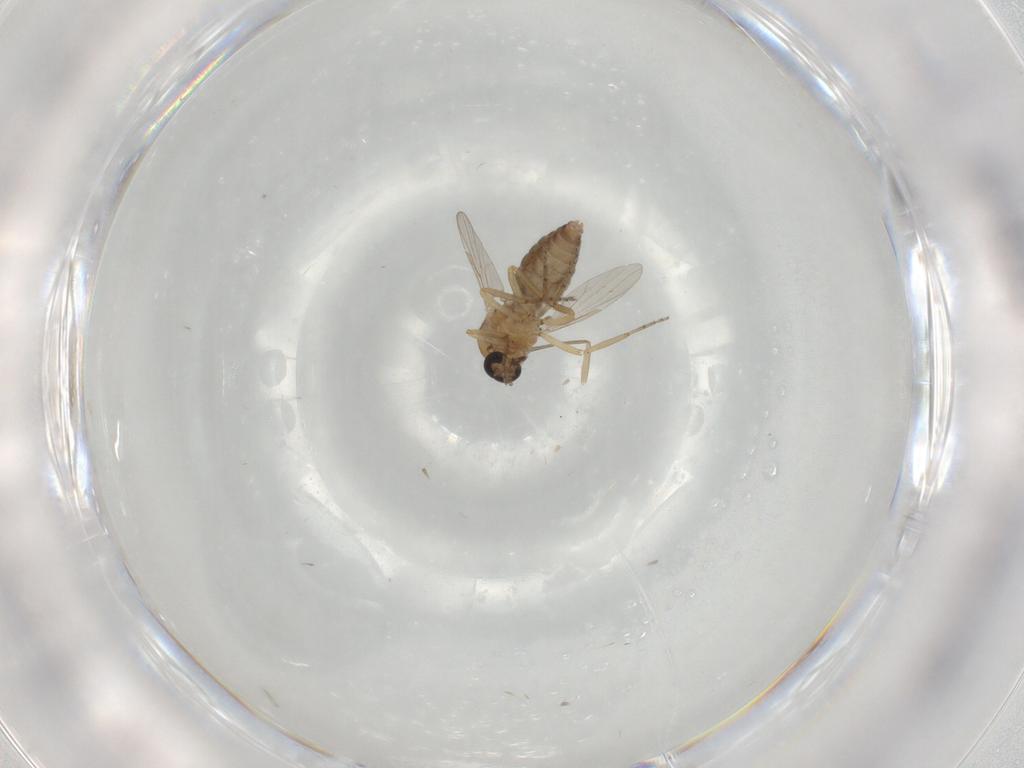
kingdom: Animalia
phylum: Arthropoda
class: Insecta
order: Diptera
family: Ceratopogonidae
